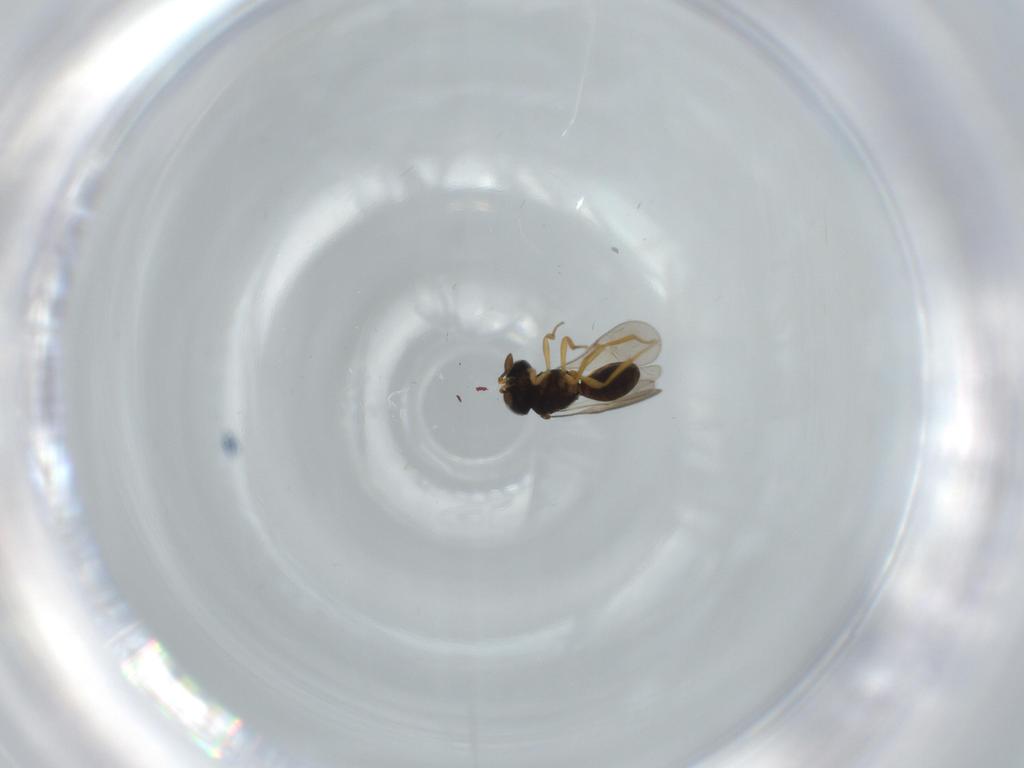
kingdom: Animalia
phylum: Arthropoda
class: Insecta
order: Hymenoptera
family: Scelionidae
